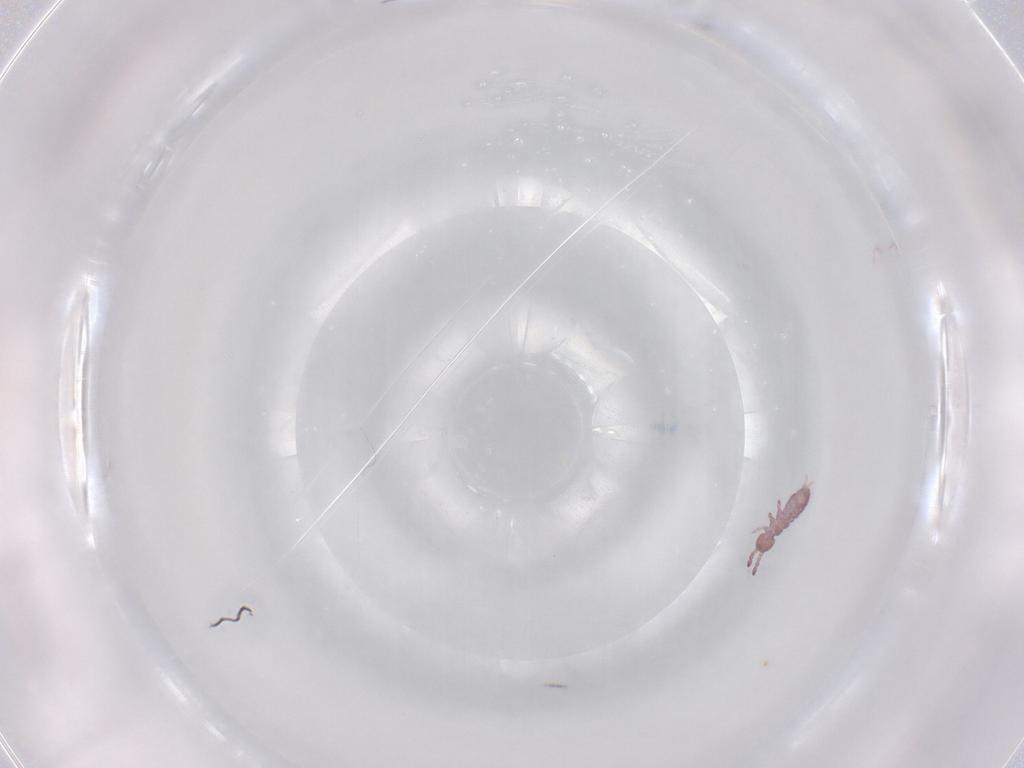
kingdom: Animalia
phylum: Arthropoda
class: Collembola
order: Entomobryomorpha
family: Isotomidae
